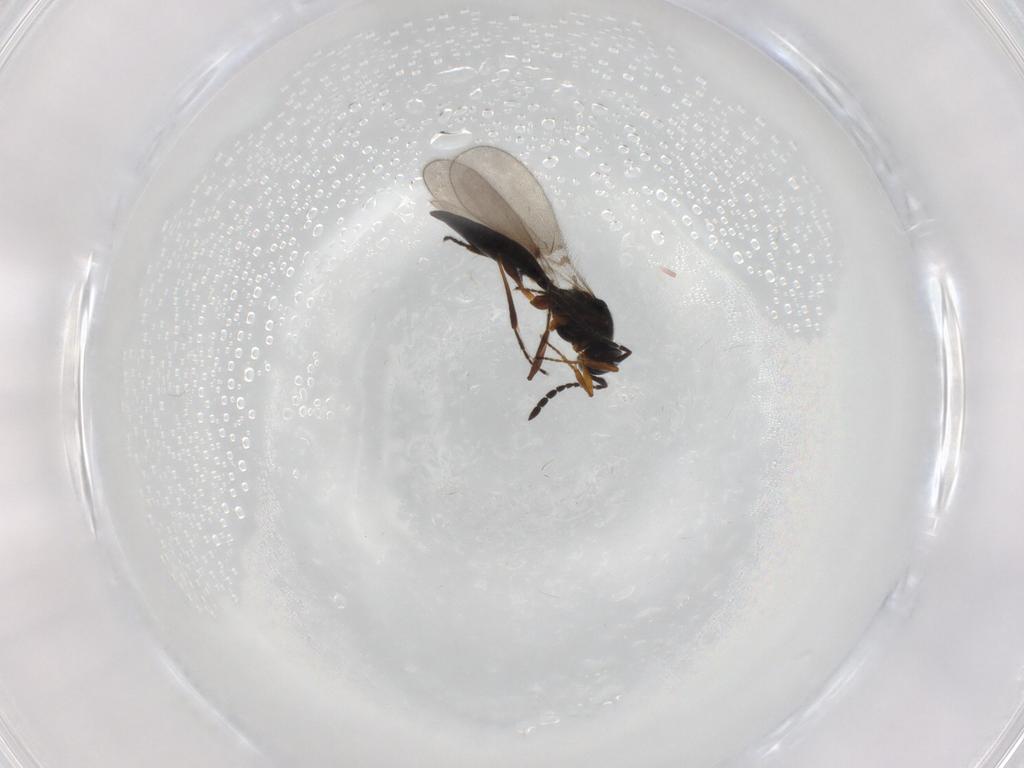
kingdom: Animalia
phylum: Arthropoda
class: Insecta
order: Hymenoptera
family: Platygastridae
